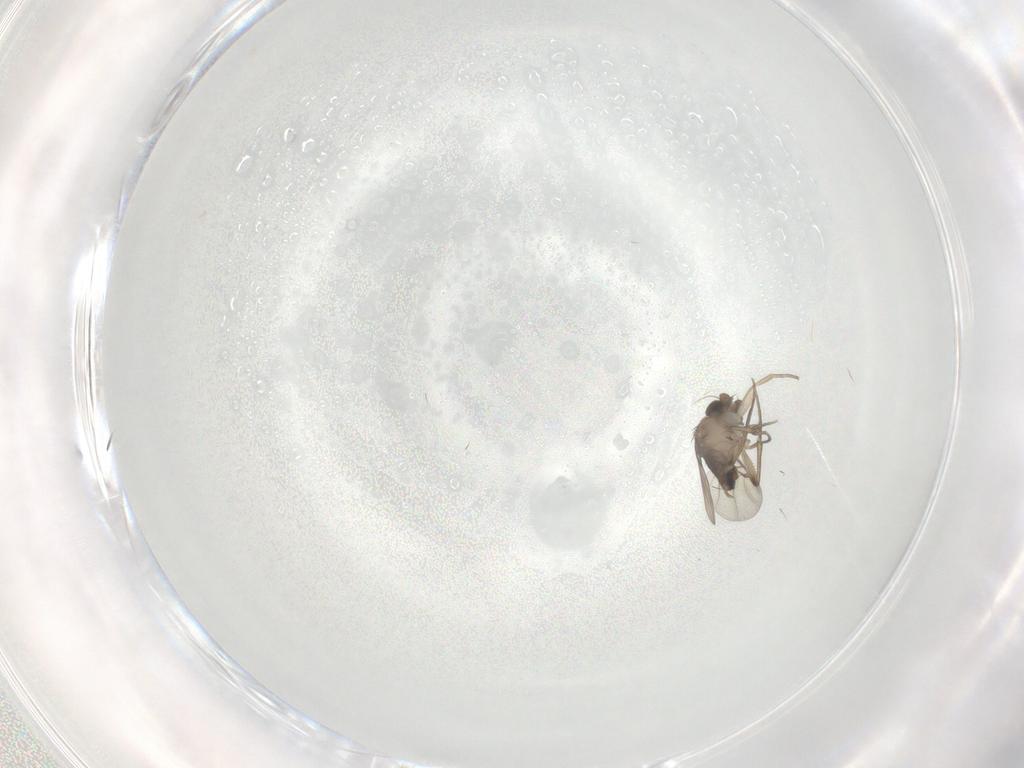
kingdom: Animalia
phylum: Arthropoda
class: Insecta
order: Diptera
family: Phoridae
